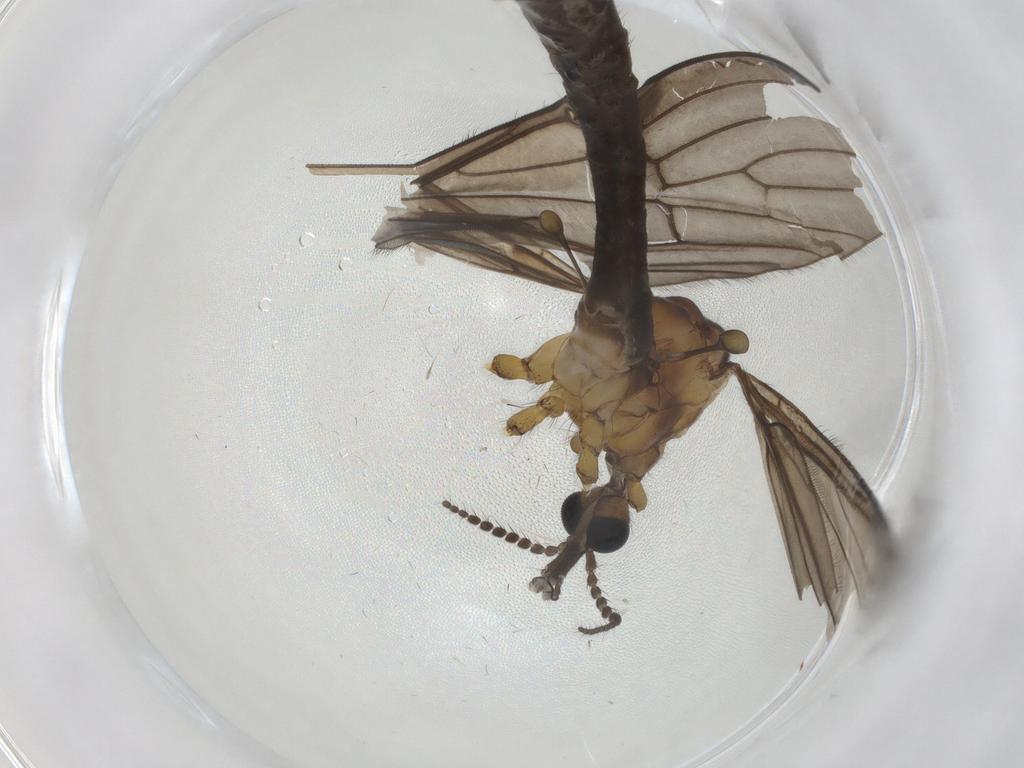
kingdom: Animalia
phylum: Arthropoda
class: Insecta
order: Diptera
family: Limoniidae
